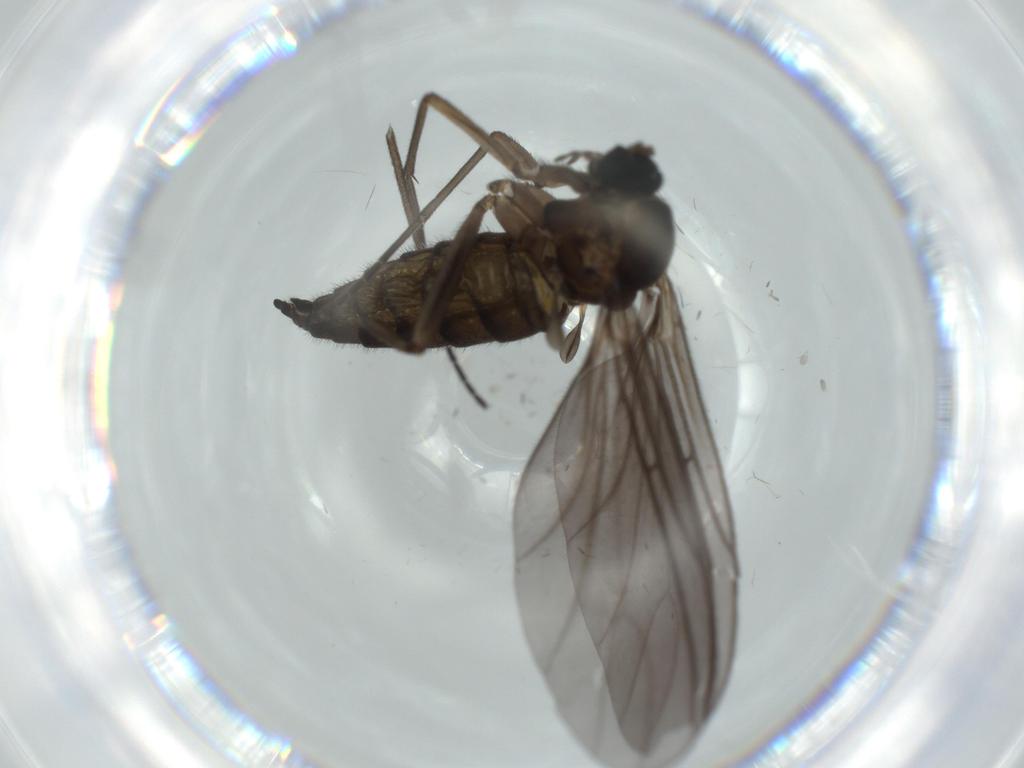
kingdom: Animalia
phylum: Arthropoda
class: Insecta
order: Diptera
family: Sciaridae
